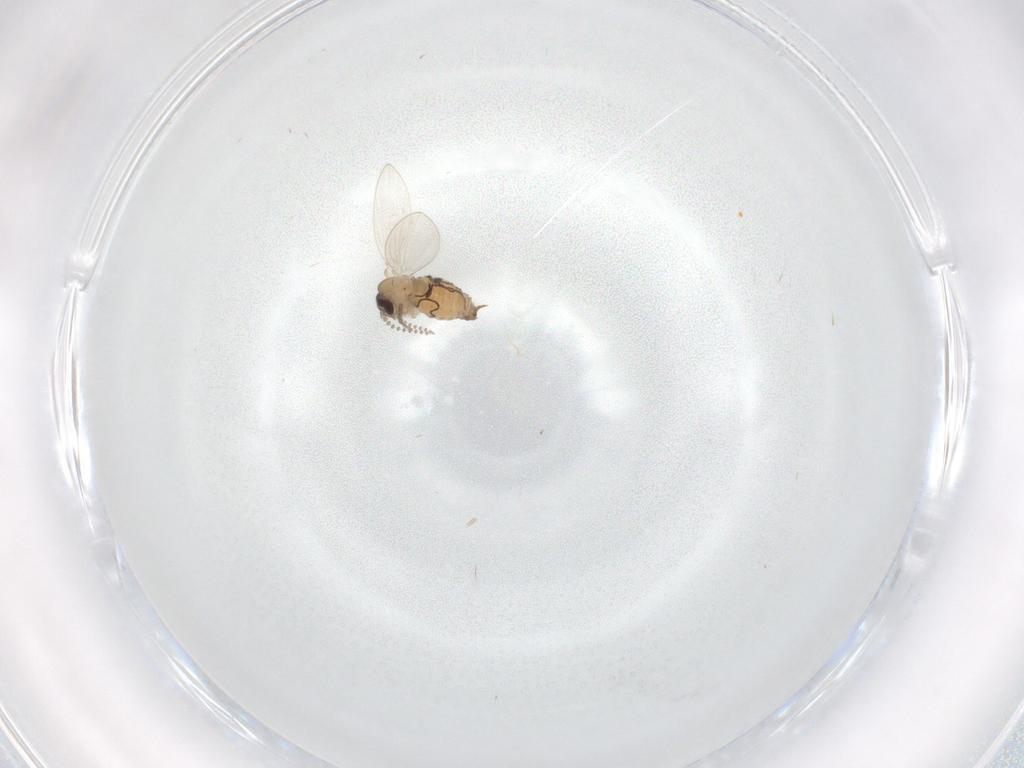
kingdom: Animalia
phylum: Arthropoda
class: Insecta
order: Diptera
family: Psychodidae
